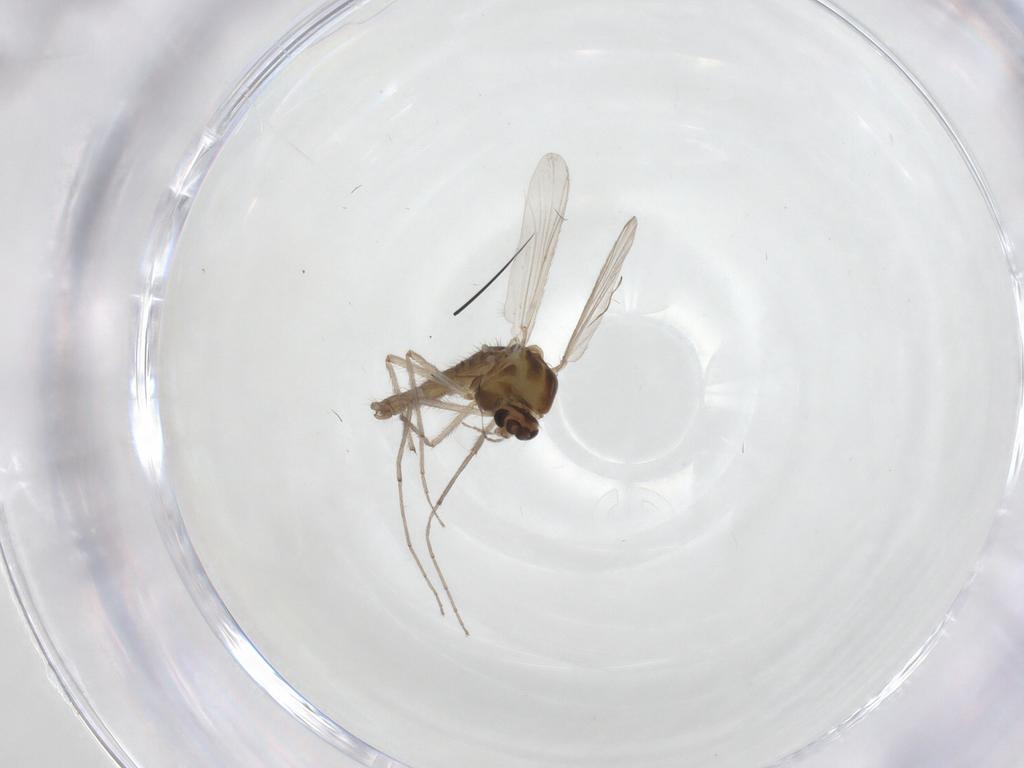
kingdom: Animalia
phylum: Arthropoda
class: Insecta
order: Diptera
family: Chironomidae
